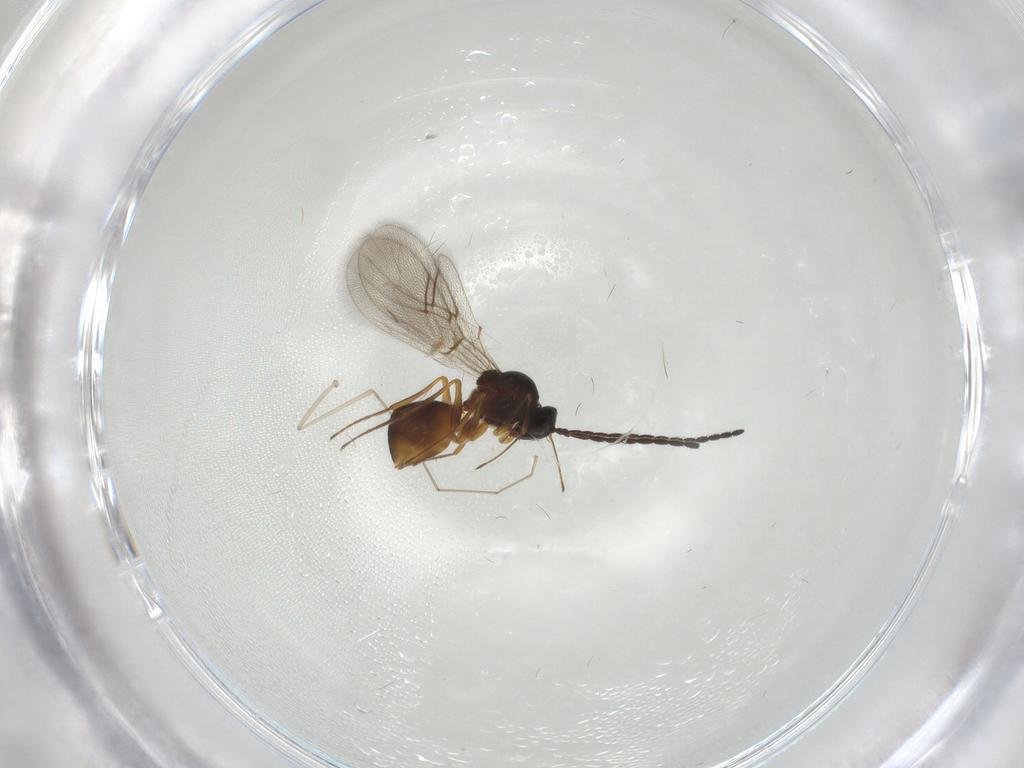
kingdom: Animalia
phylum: Arthropoda
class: Insecta
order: Hymenoptera
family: Figitidae
